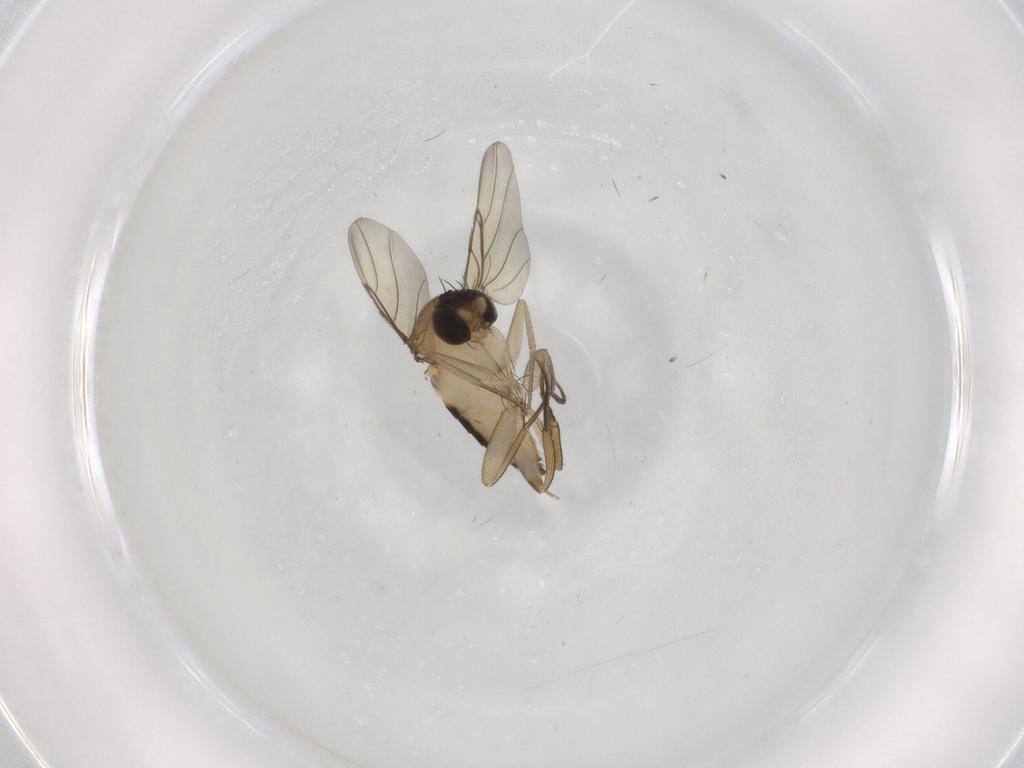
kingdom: Animalia
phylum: Arthropoda
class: Insecta
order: Diptera
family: Phoridae
